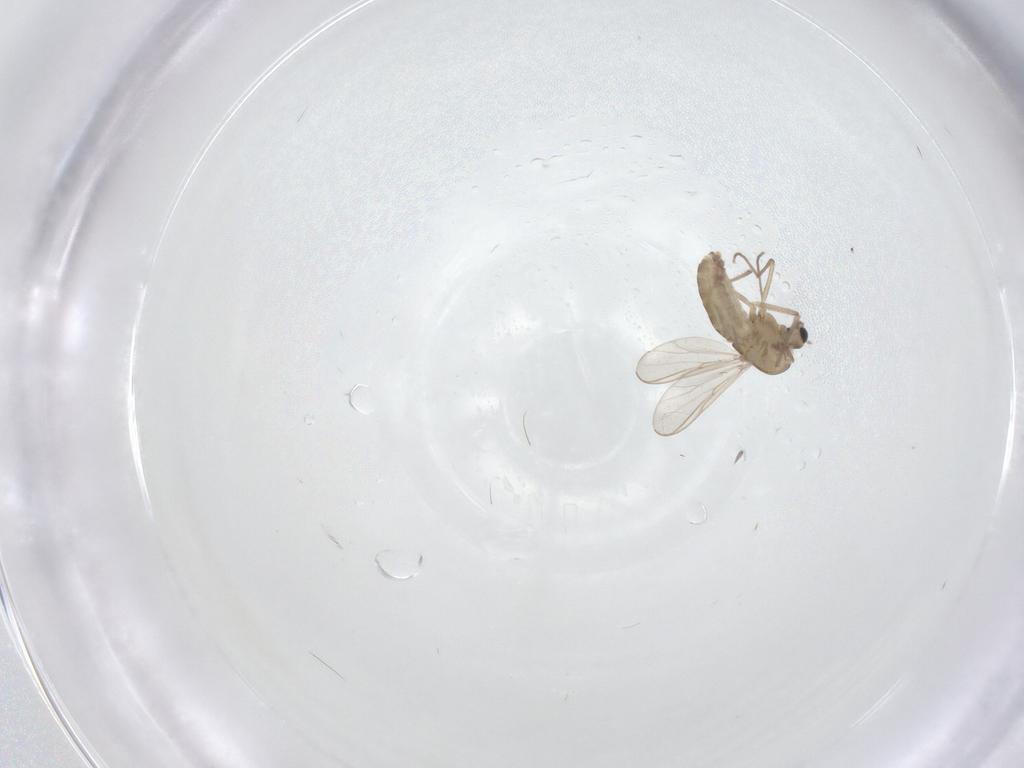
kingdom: Animalia
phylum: Arthropoda
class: Insecta
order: Diptera
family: Chironomidae
